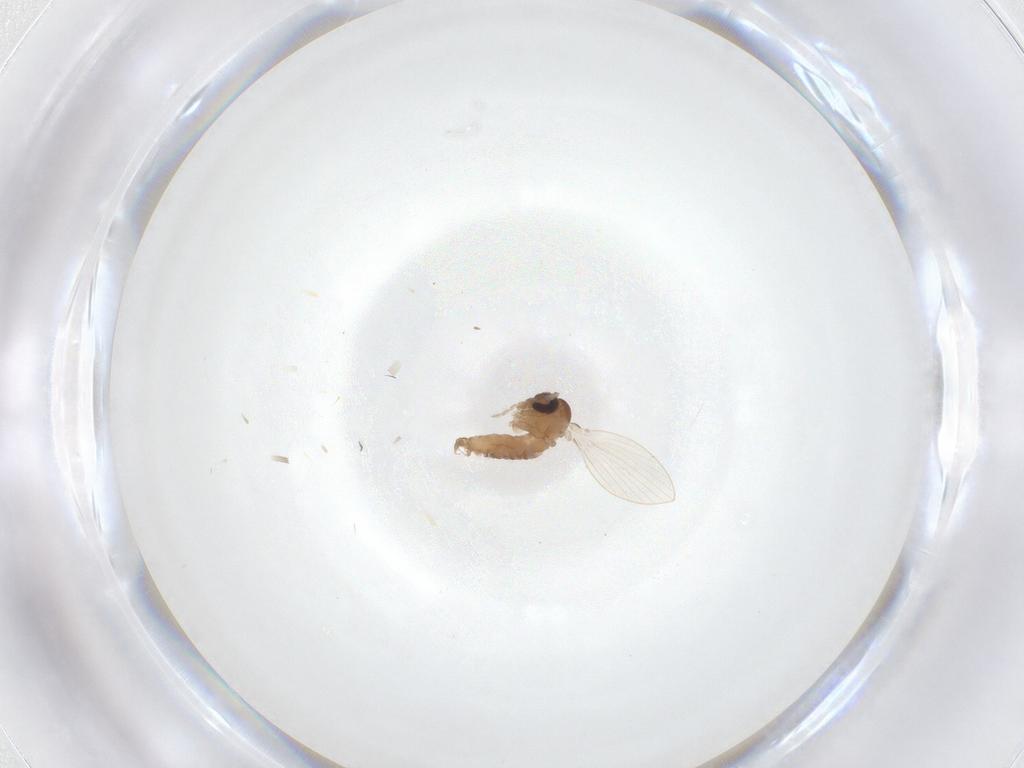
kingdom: Animalia
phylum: Arthropoda
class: Insecta
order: Diptera
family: Psychodidae
